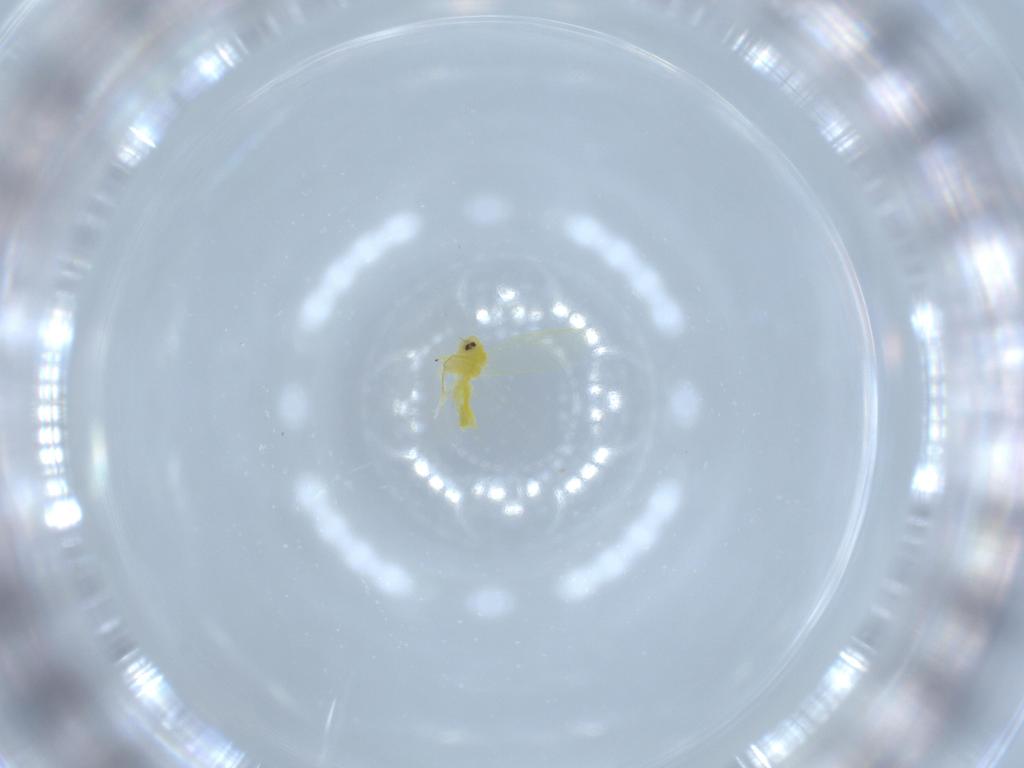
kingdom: Animalia
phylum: Arthropoda
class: Insecta
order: Hemiptera
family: Aleyrodidae
